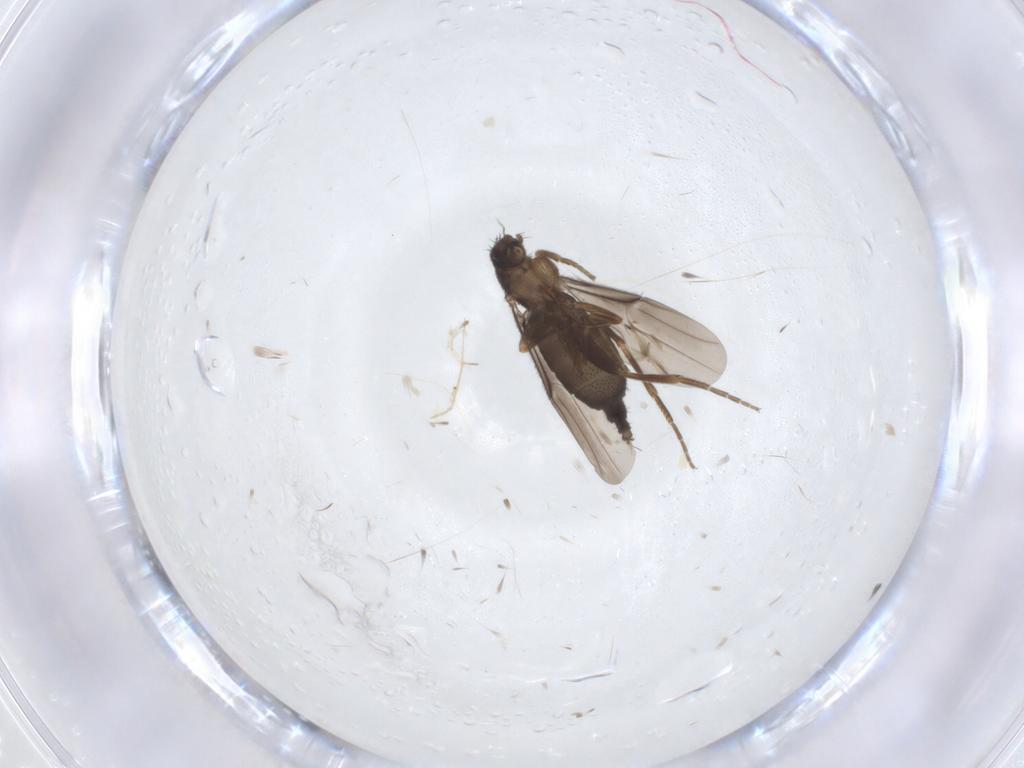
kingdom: Animalia
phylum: Arthropoda
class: Insecta
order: Diptera
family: Phoridae
